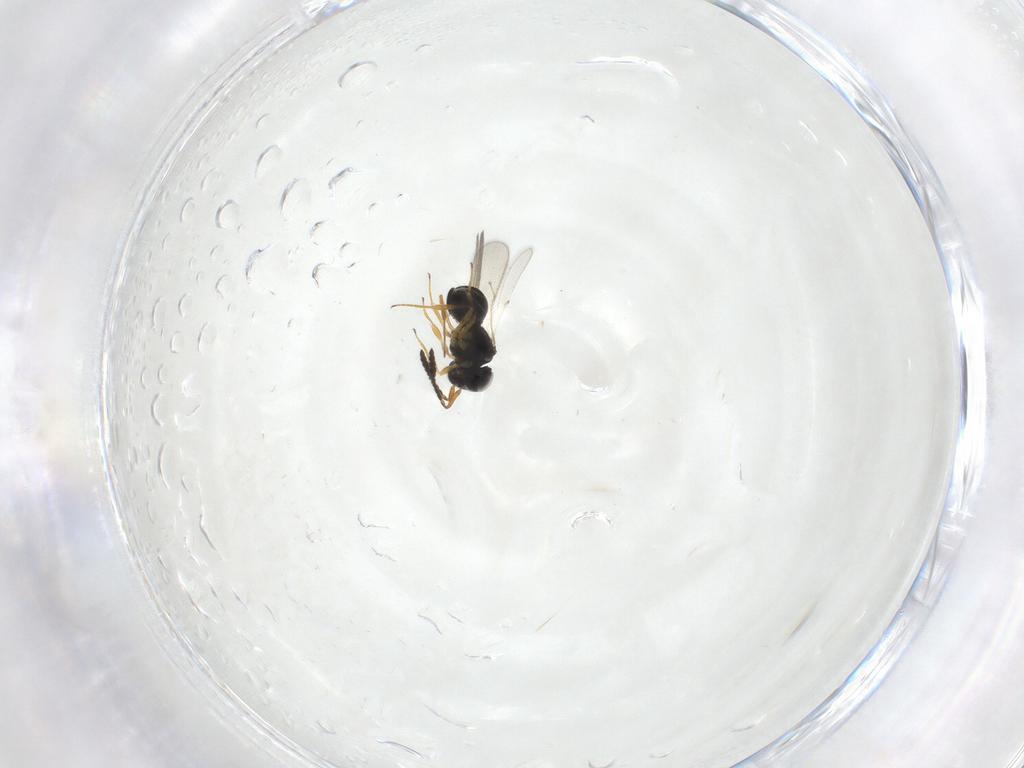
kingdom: Animalia
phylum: Arthropoda
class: Insecta
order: Hymenoptera
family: Scelionidae
